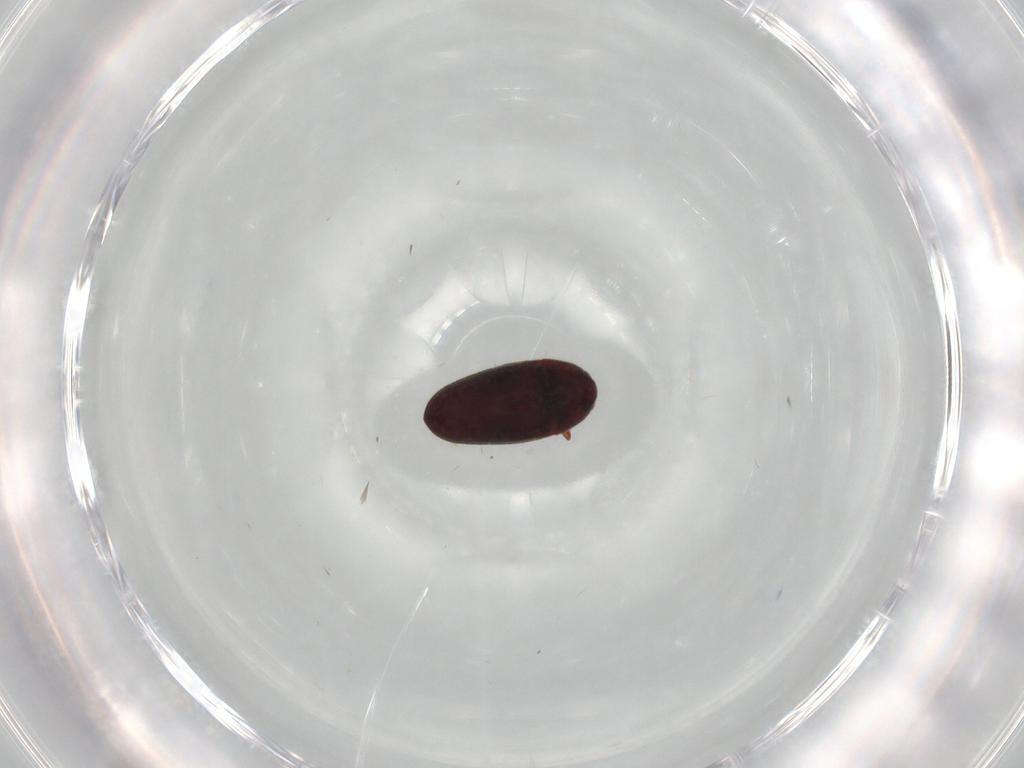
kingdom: Animalia
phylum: Arthropoda
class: Insecta
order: Coleoptera
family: Throscidae
